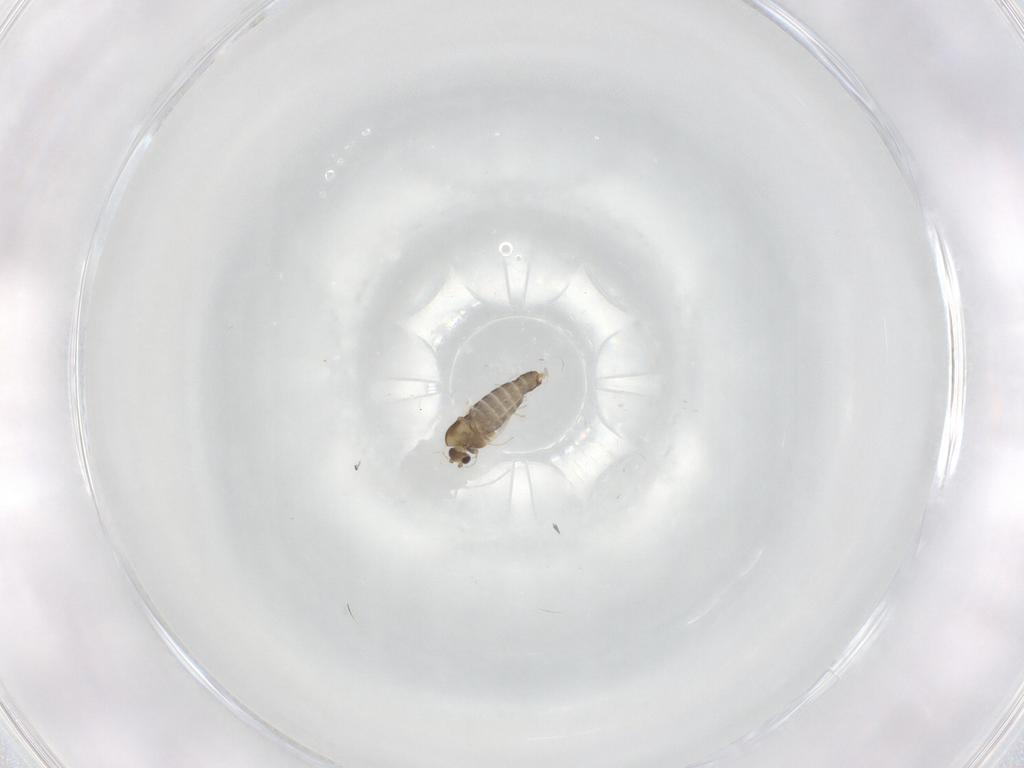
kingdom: Animalia
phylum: Arthropoda
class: Insecta
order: Diptera
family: Chironomidae
